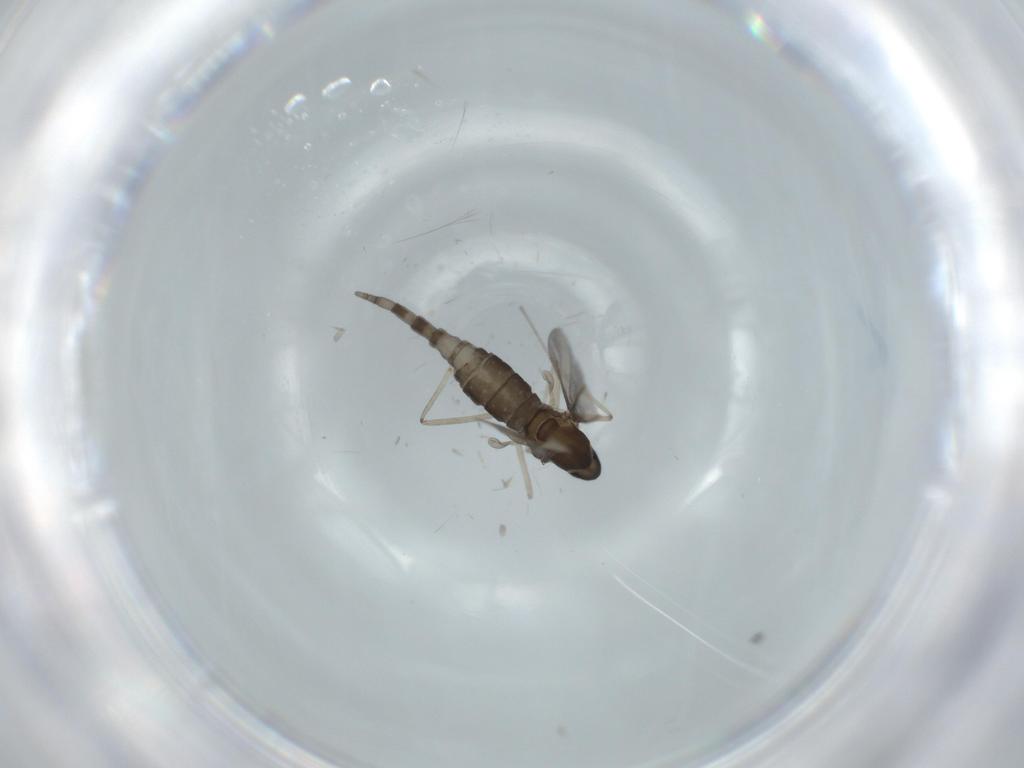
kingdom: Animalia
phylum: Arthropoda
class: Insecta
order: Diptera
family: Cecidomyiidae
